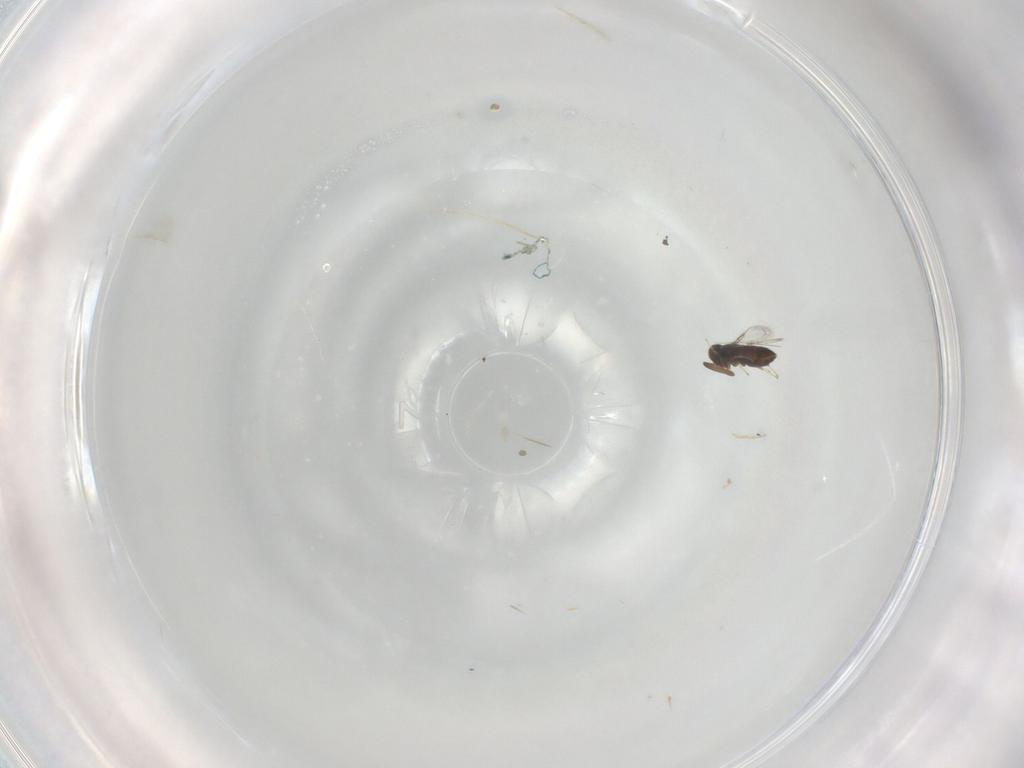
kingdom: Animalia
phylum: Arthropoda
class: Insecta
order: Hymenoptera
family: Signiphoridae
